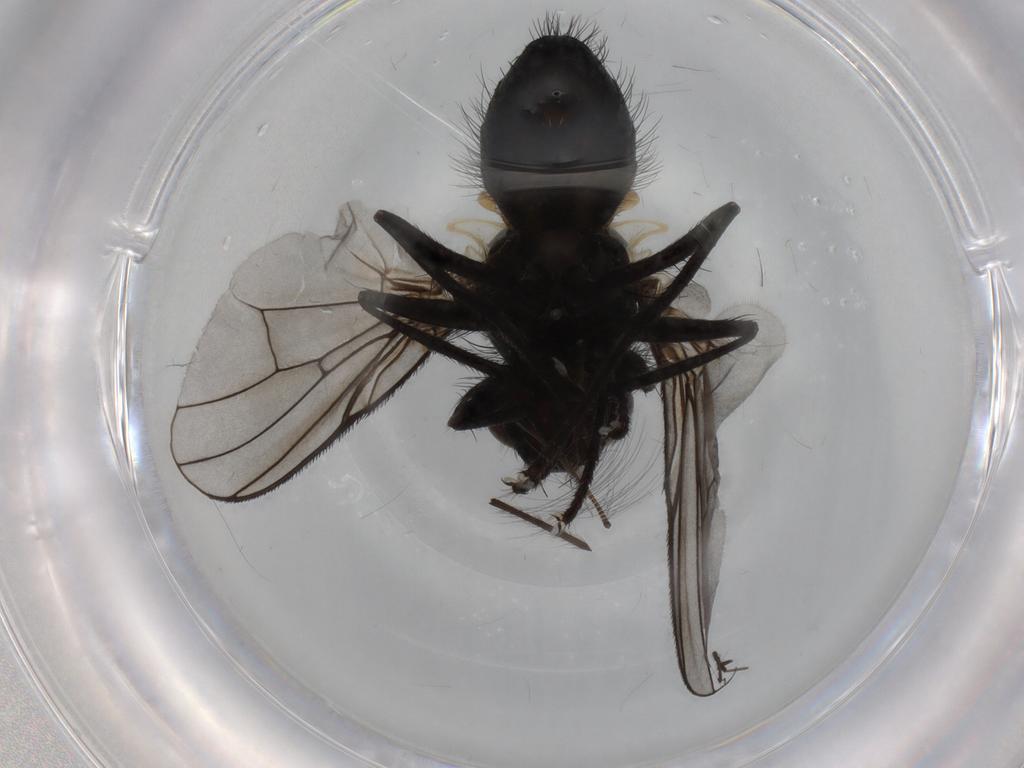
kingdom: Animalia
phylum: Arthropoda
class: Insecta
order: Diptera
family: Muscidae
